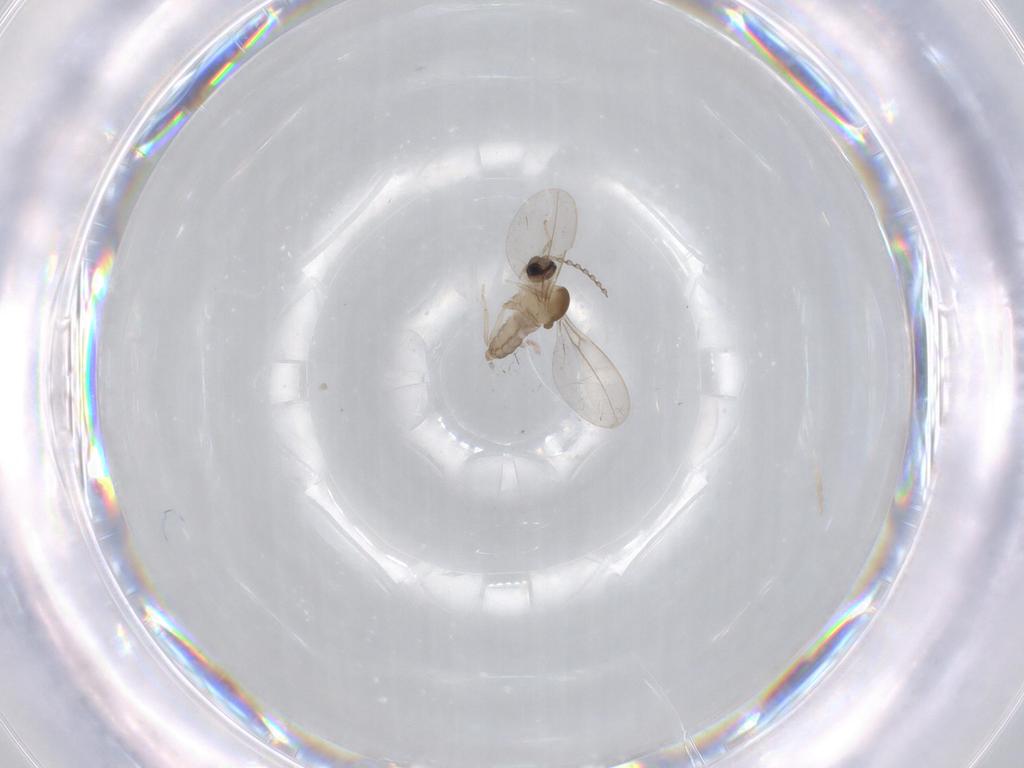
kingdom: Animalia
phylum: Arthropoda
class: Insecta
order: Diptera
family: Cecidomyiidae
